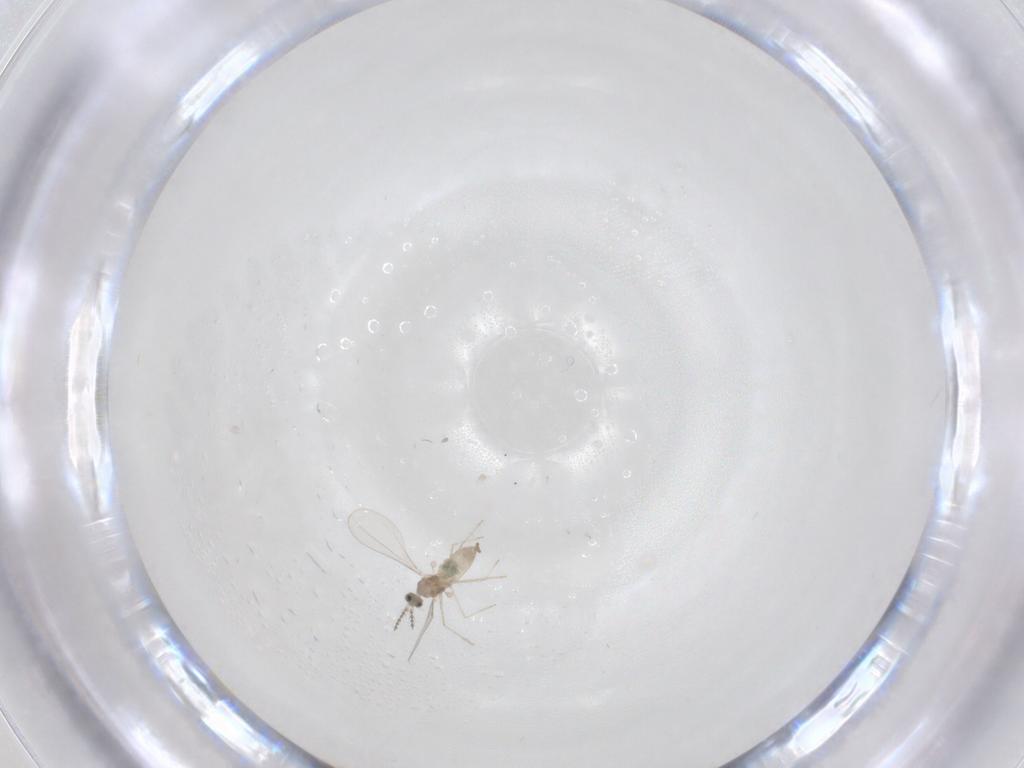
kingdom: Animalia
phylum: Arthropoda
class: Insecta
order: Diptera
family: Cecidomyiidae
